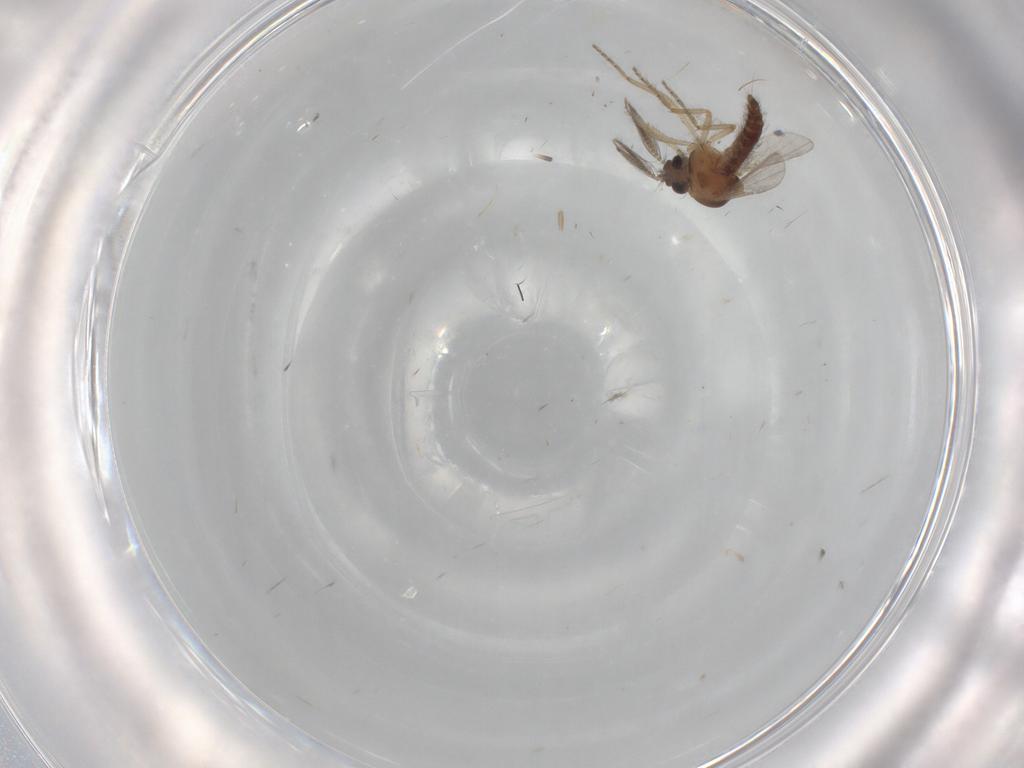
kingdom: Animalia
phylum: Arthropoda
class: Insecta
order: Diptera
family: Ceratopogonidae
